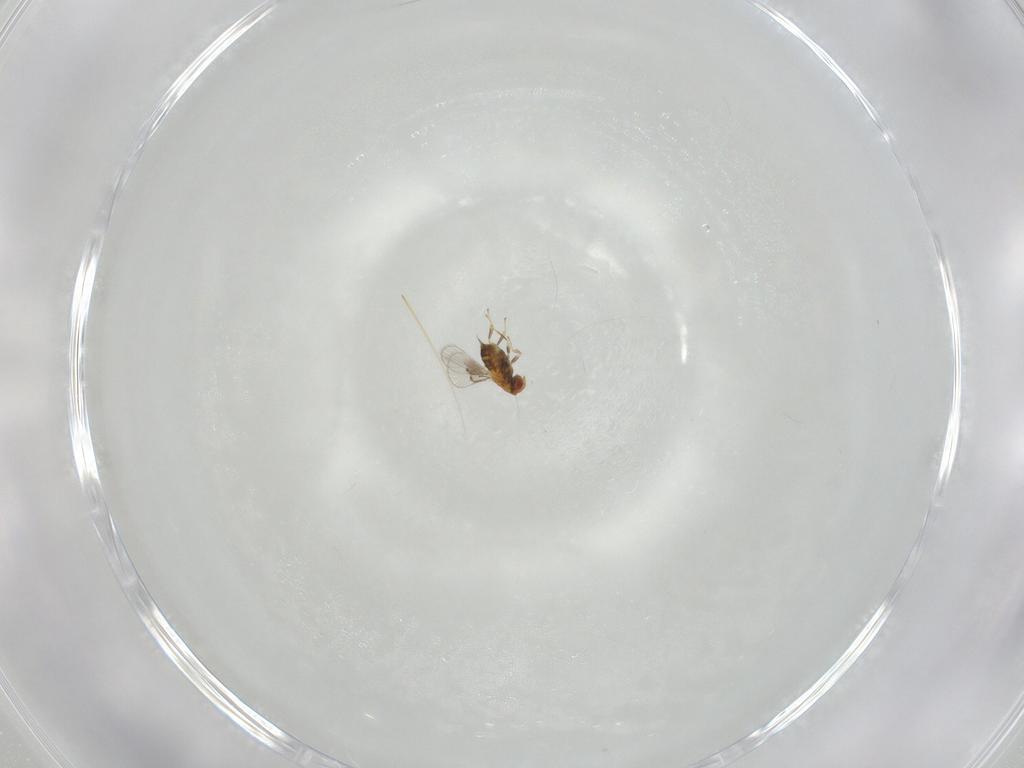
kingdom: Animalia
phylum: Arthropoda
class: Insecta
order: Hymenoptera
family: Trichogrammatidae
